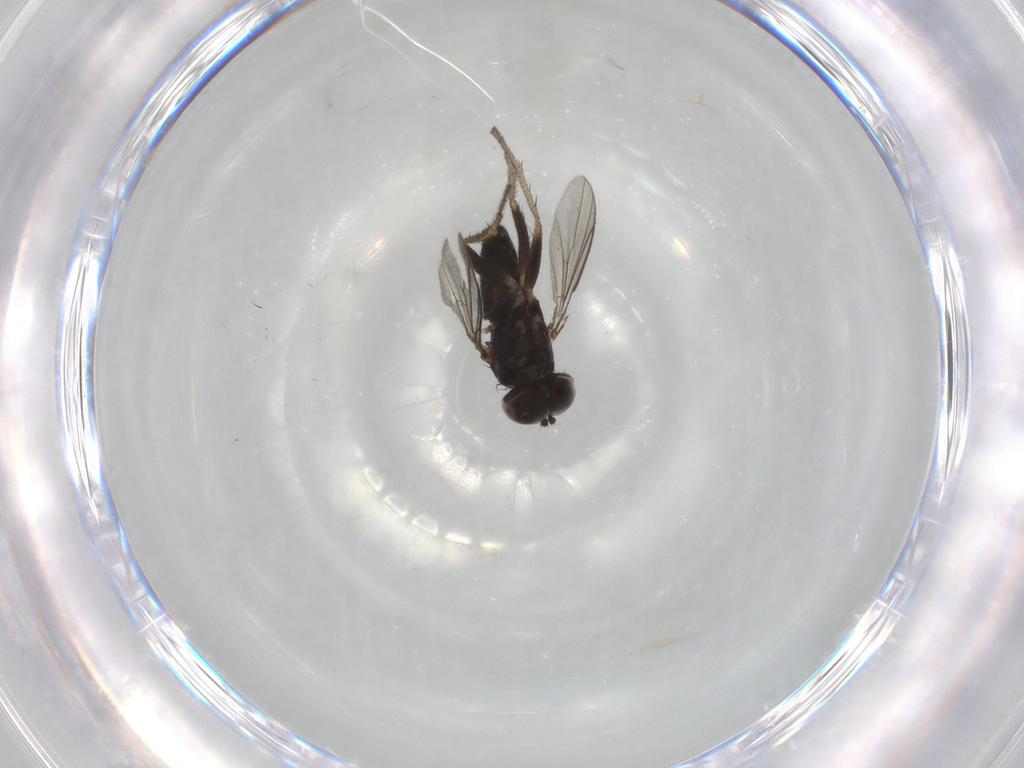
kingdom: Animalia
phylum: Arthropoda
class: Insecta
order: Diptera
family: Dolichopodidae
